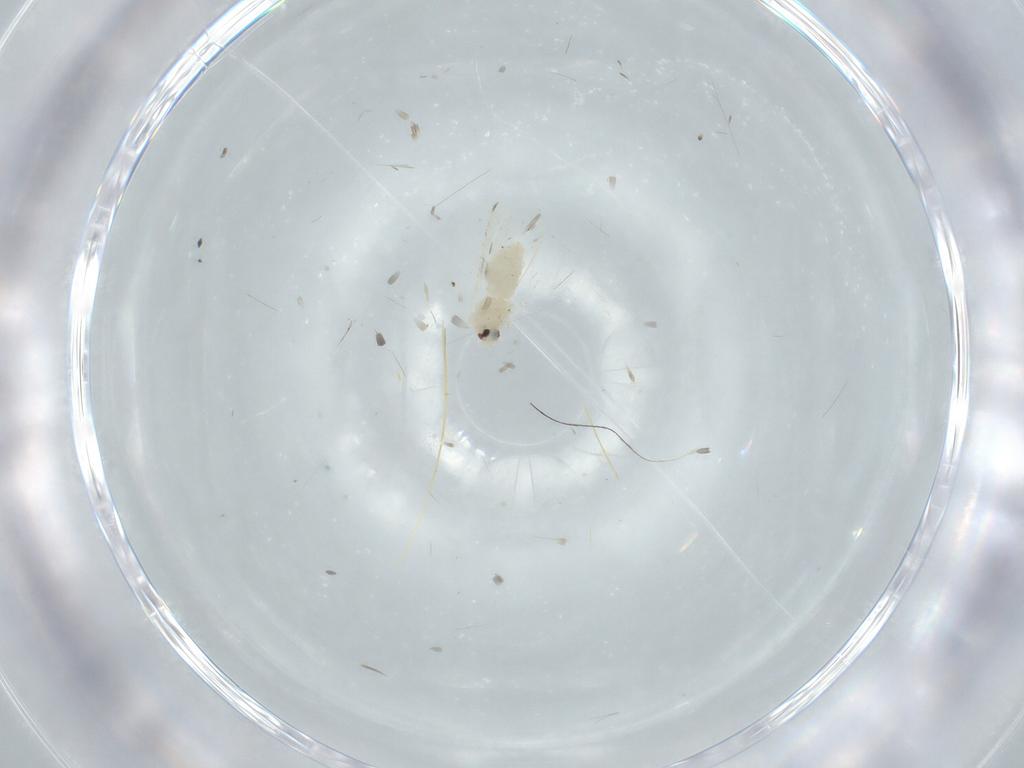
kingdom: Animalia
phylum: Arthropoda
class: Insecta
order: Hemiptera
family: Aleyrodidae
